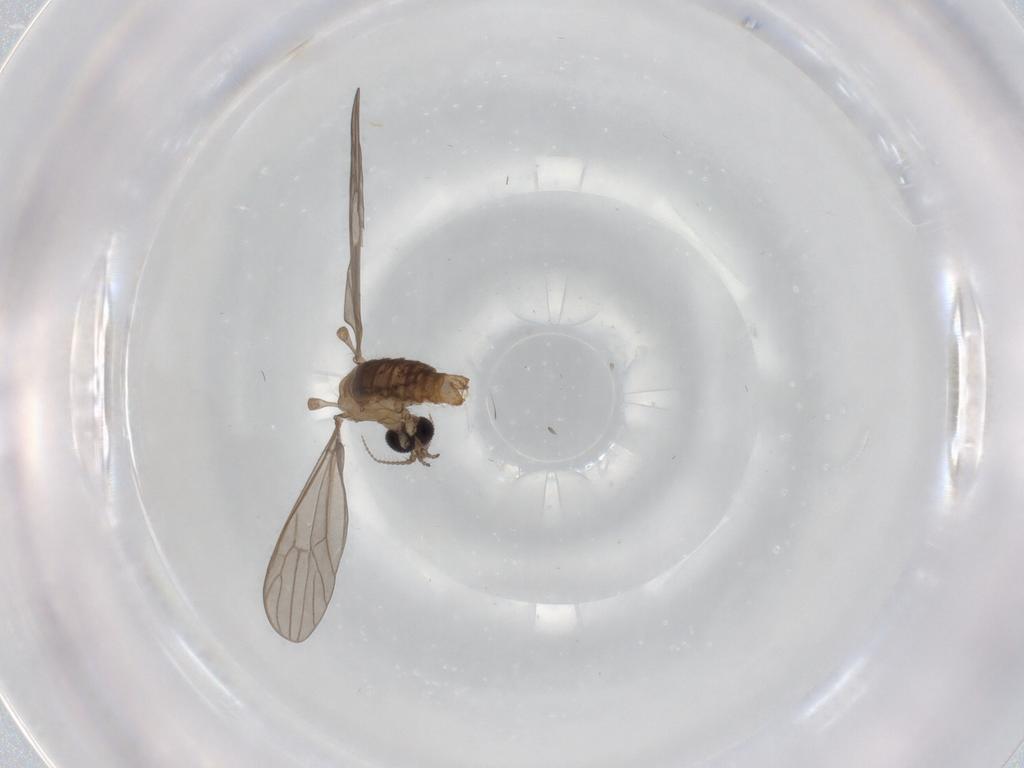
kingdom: Animalia
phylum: Arthropoda
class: Insecta
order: Diptera
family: Limoniidae
